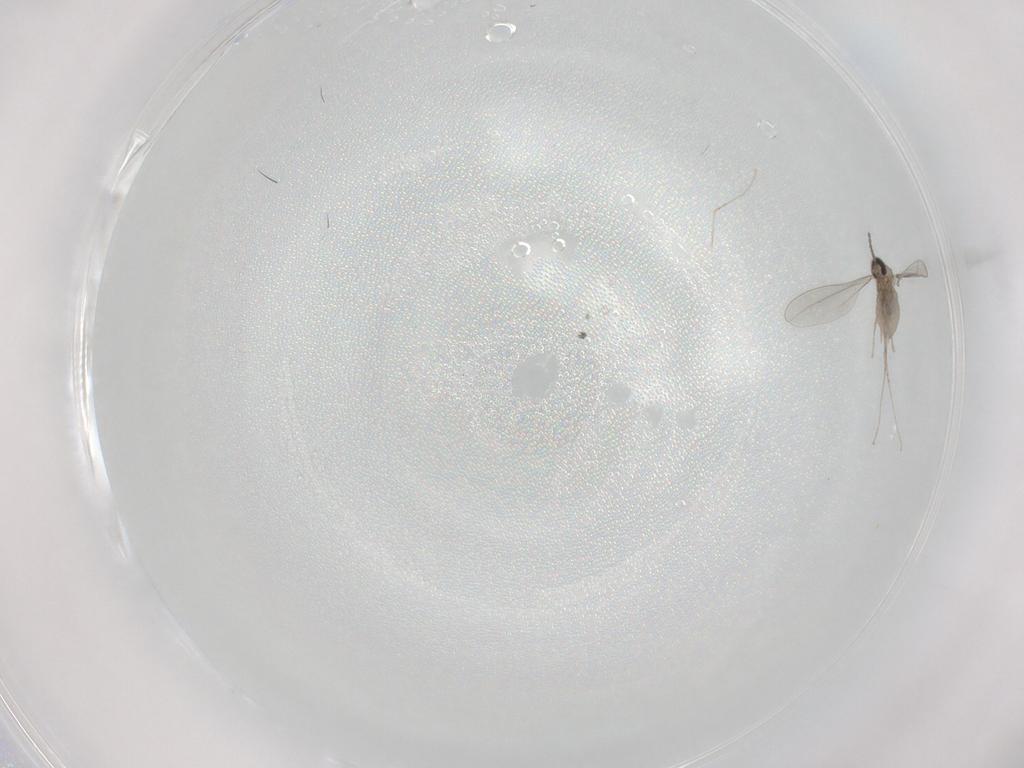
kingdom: Animalia
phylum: Arthropoda
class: Insecta
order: Diptera
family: Cecidomyiidae
